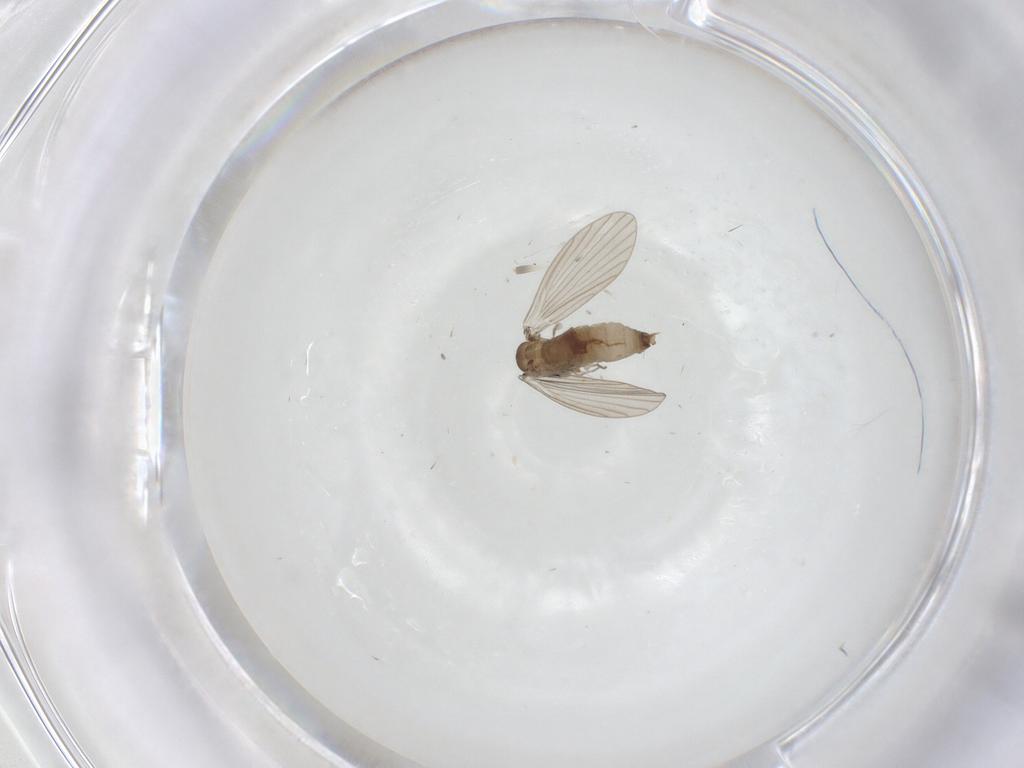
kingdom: Animalia
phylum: Arthropoda
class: Insecta
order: Diptera
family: Psychodidae
